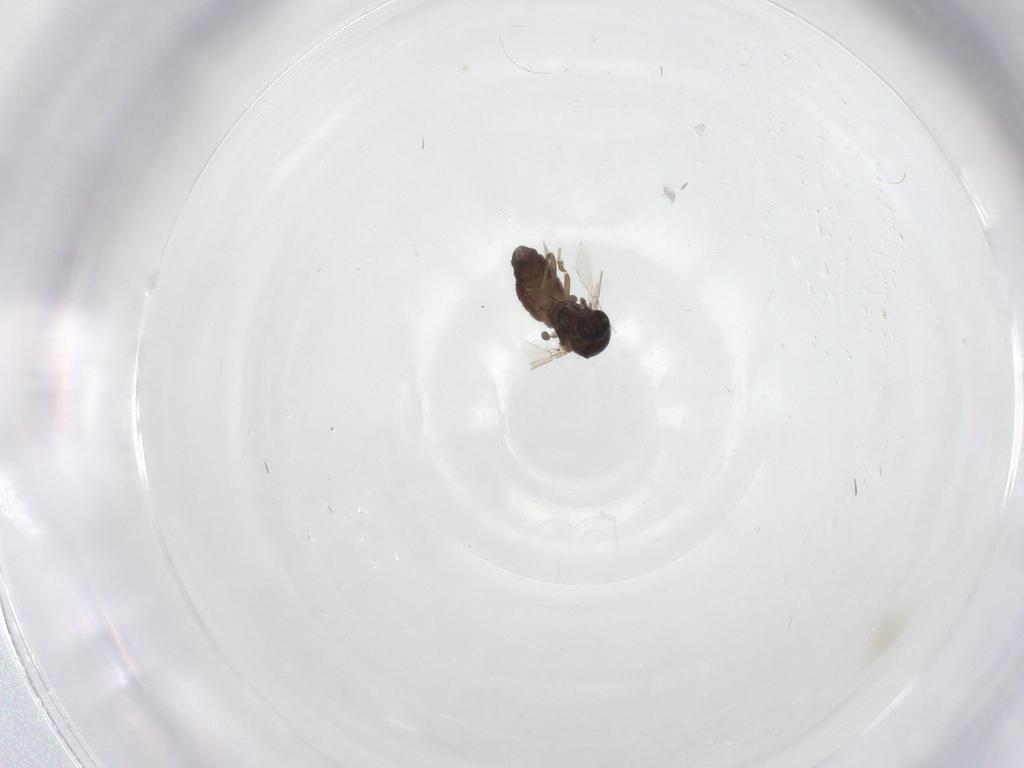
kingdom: Animalia
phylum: Arthropoda
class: Insecta
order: Diptera
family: Ceratopogonidae
